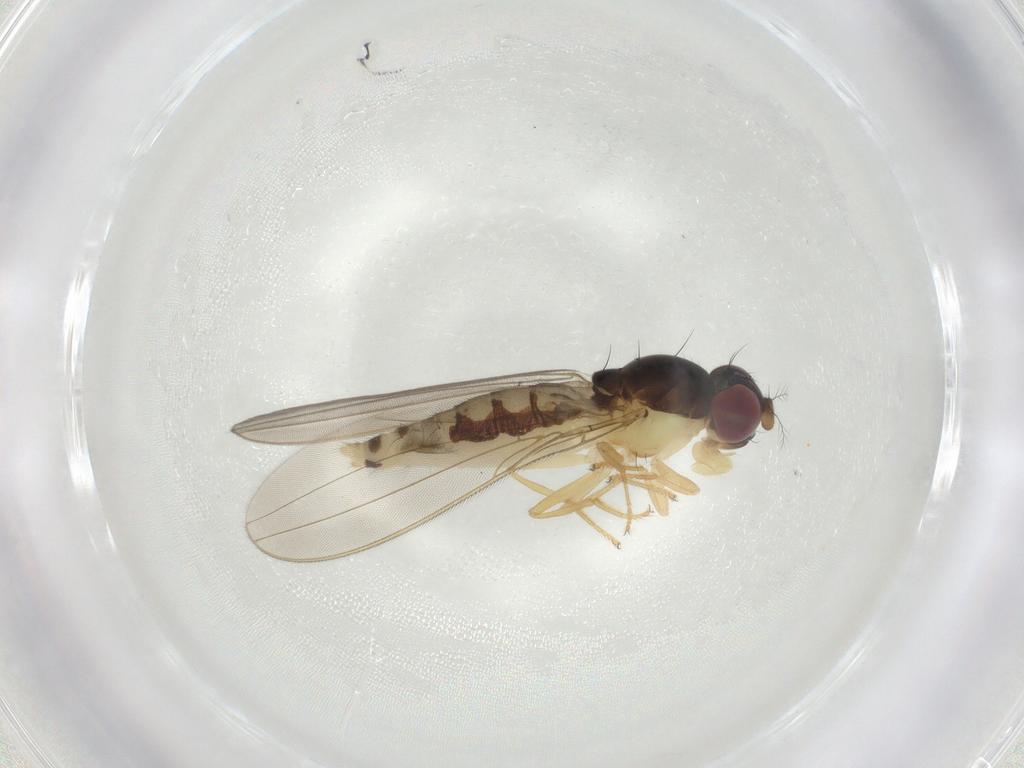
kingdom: Animalia
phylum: Arthropoda
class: Insecta
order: Diptera
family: Asteiidae
